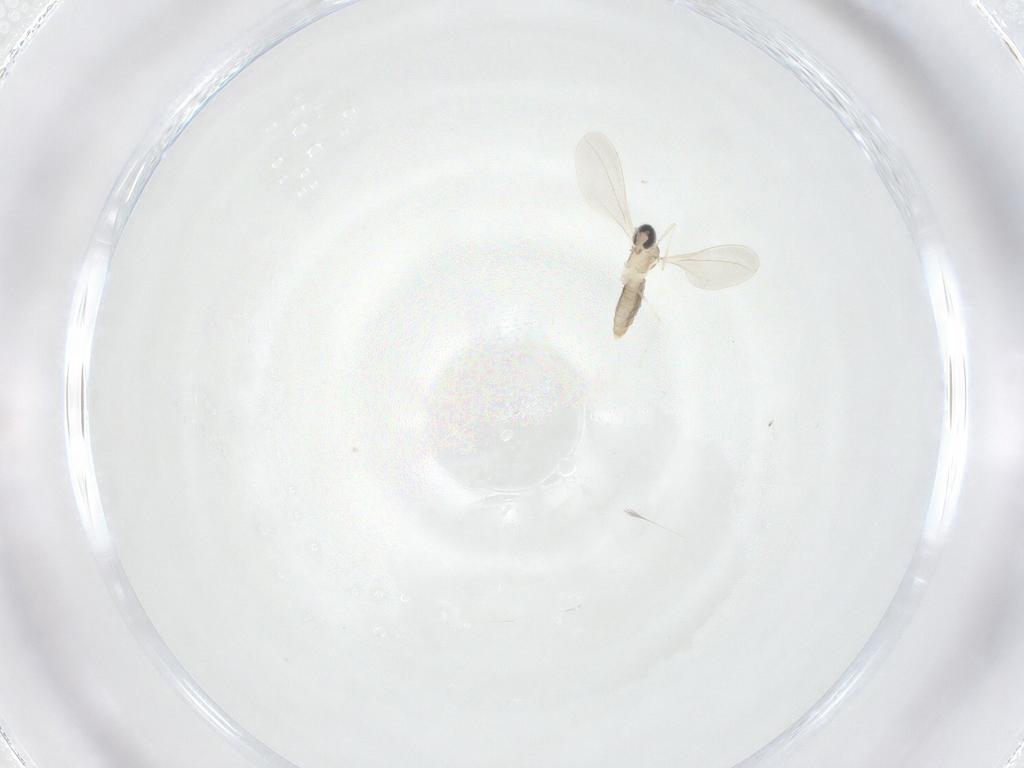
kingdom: Animalia
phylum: Arthropoda
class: Insecta
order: Diptera
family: Cecidomyiidae
